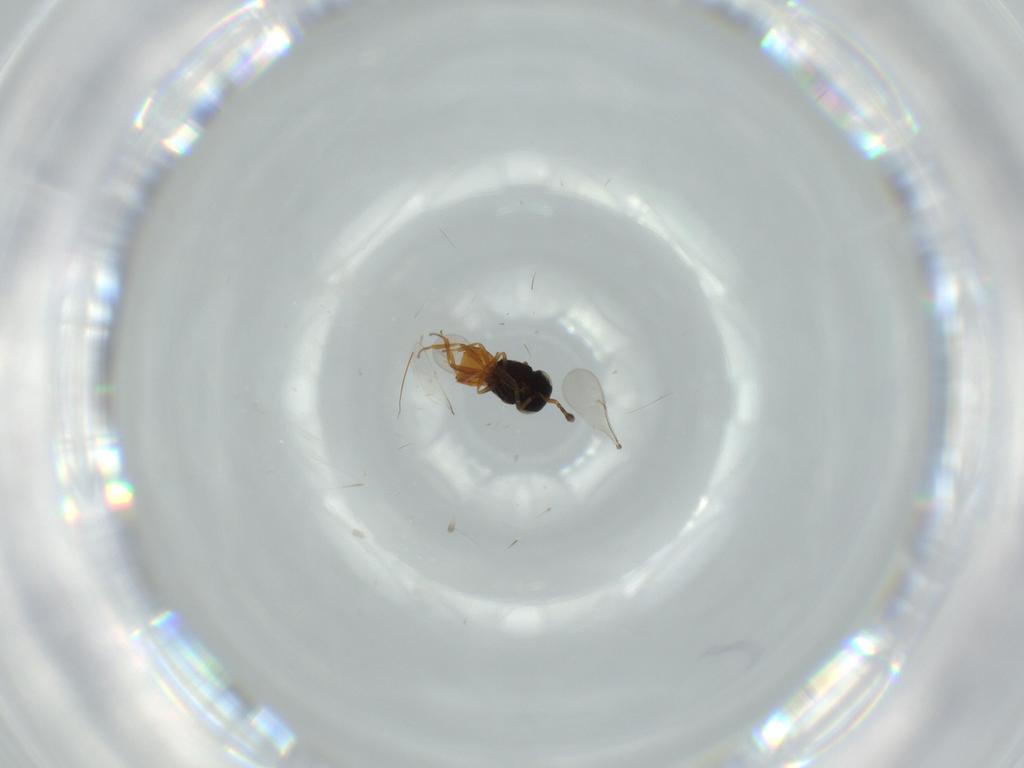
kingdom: Animalia
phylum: Arthropoda
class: Insecta
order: Hymenoptera
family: Scelionidae
